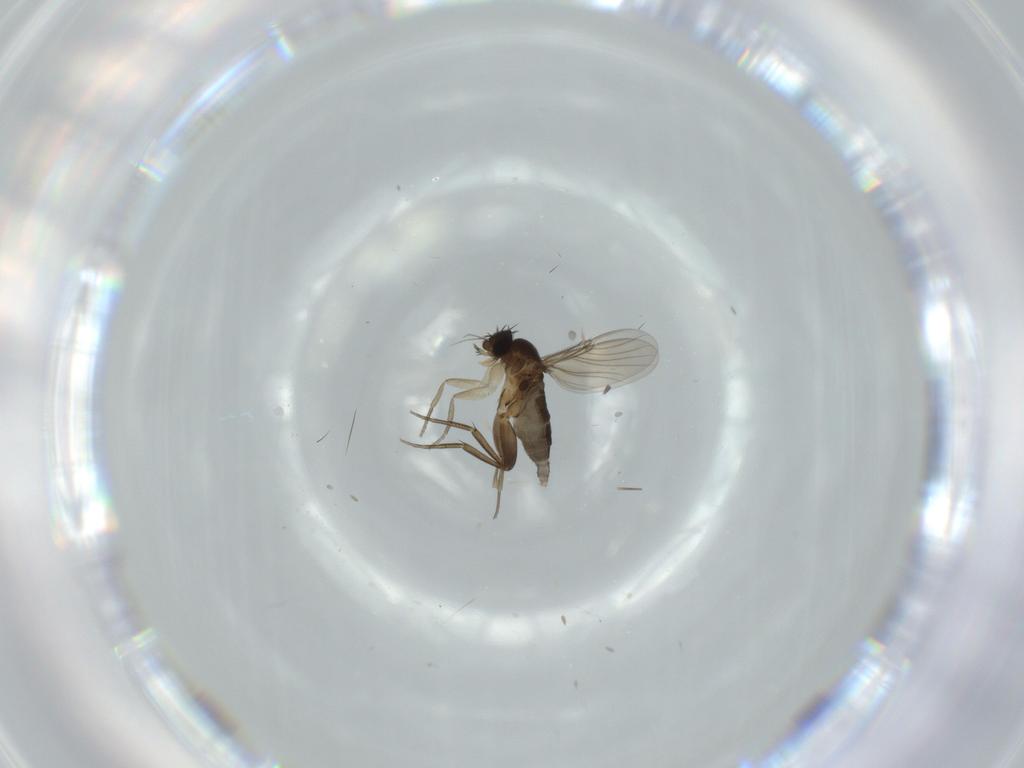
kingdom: Animalia
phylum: Arthropoda
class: Insecta
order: Diptera
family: Phoridae
